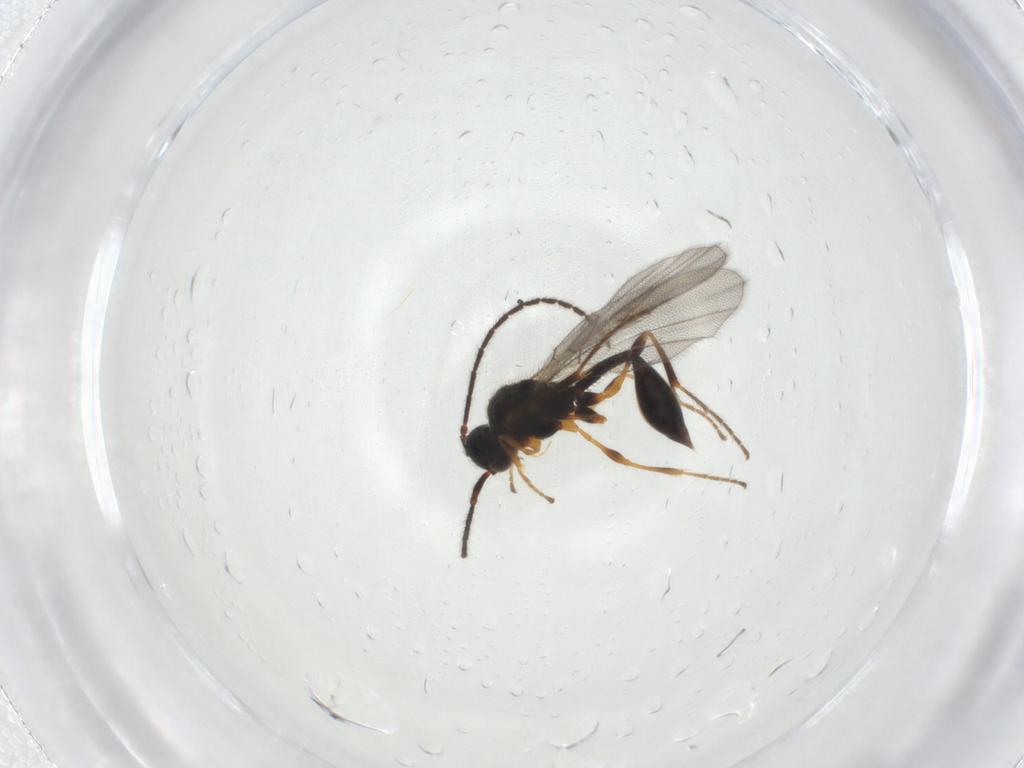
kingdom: Animalia
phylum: Arthropoda
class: Insecta
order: Hymenoptera
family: Diapriidae
